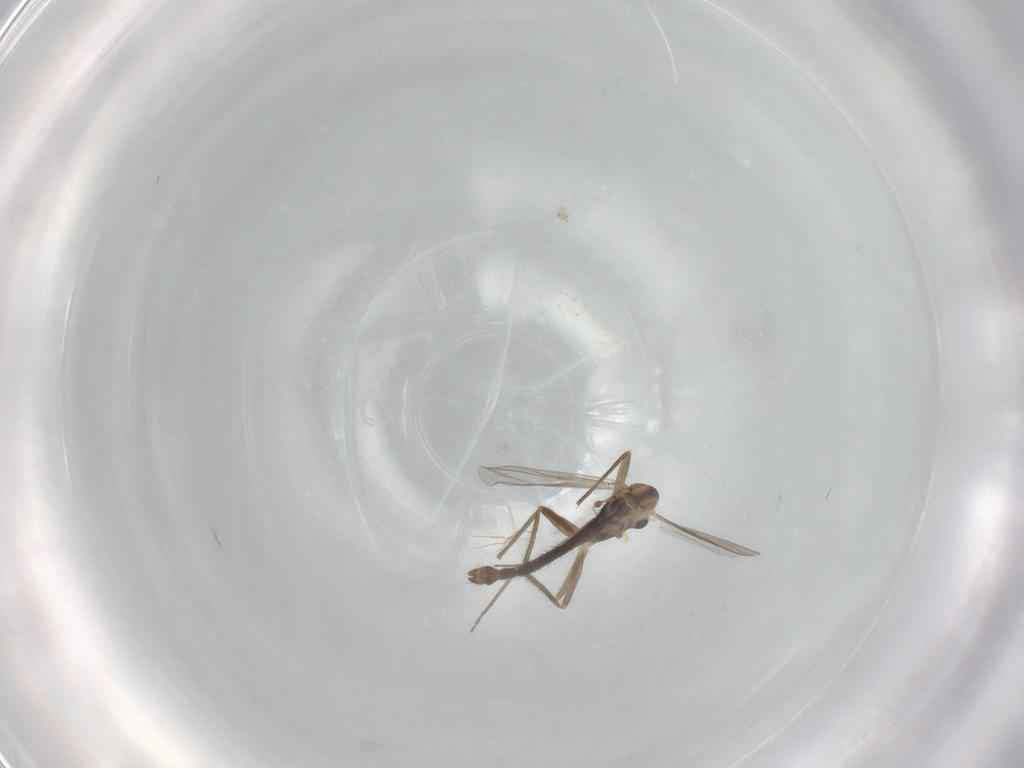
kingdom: Animalia
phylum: Arthropoda
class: Insecta
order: Diptera
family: Chironomidae
